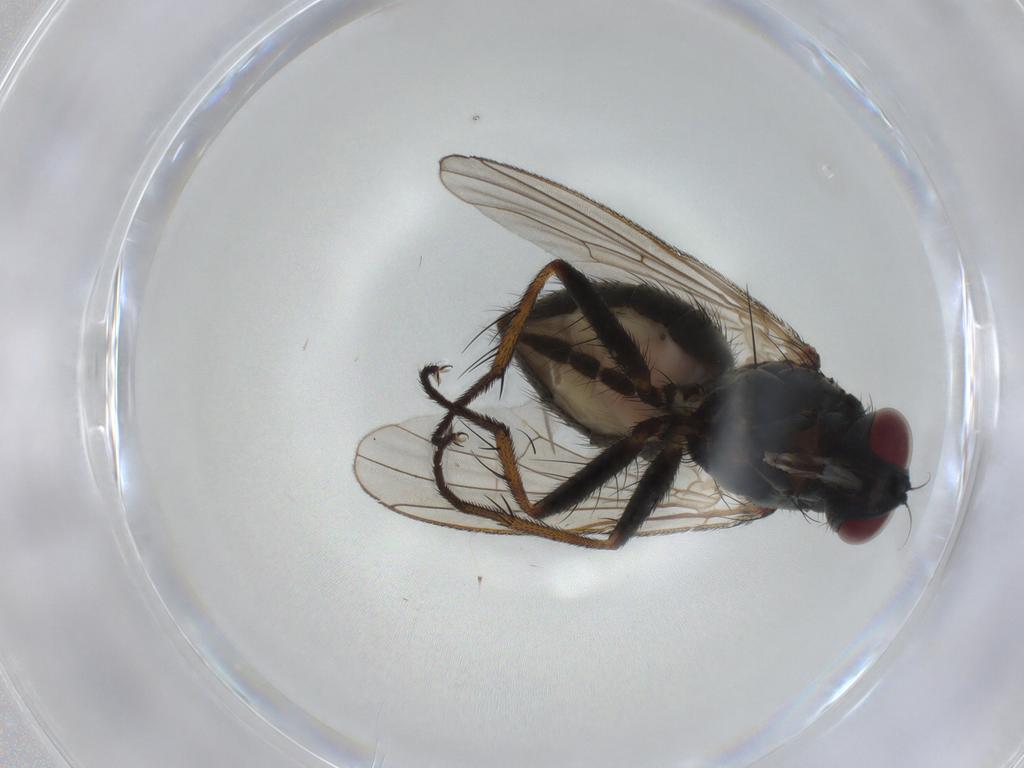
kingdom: Animalia
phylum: Arthropoda
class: Insecta
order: Diptera
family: Muscidae
